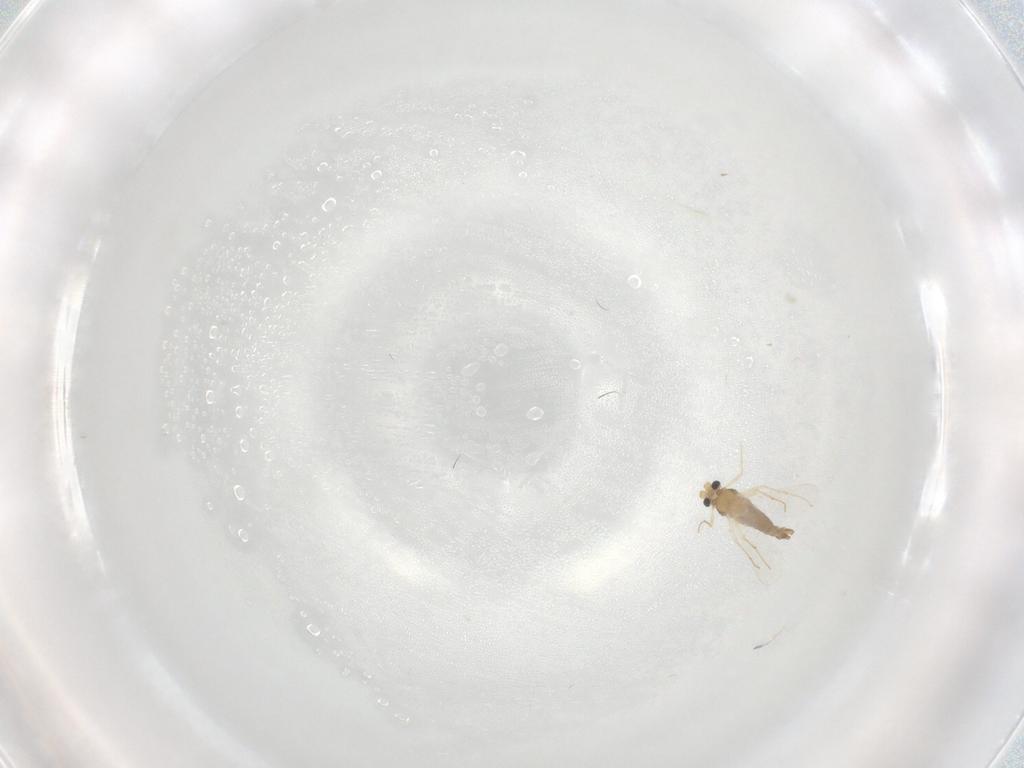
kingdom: Animalia
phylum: Arthropoda
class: Insecta
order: Diptera
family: Chironomidae
